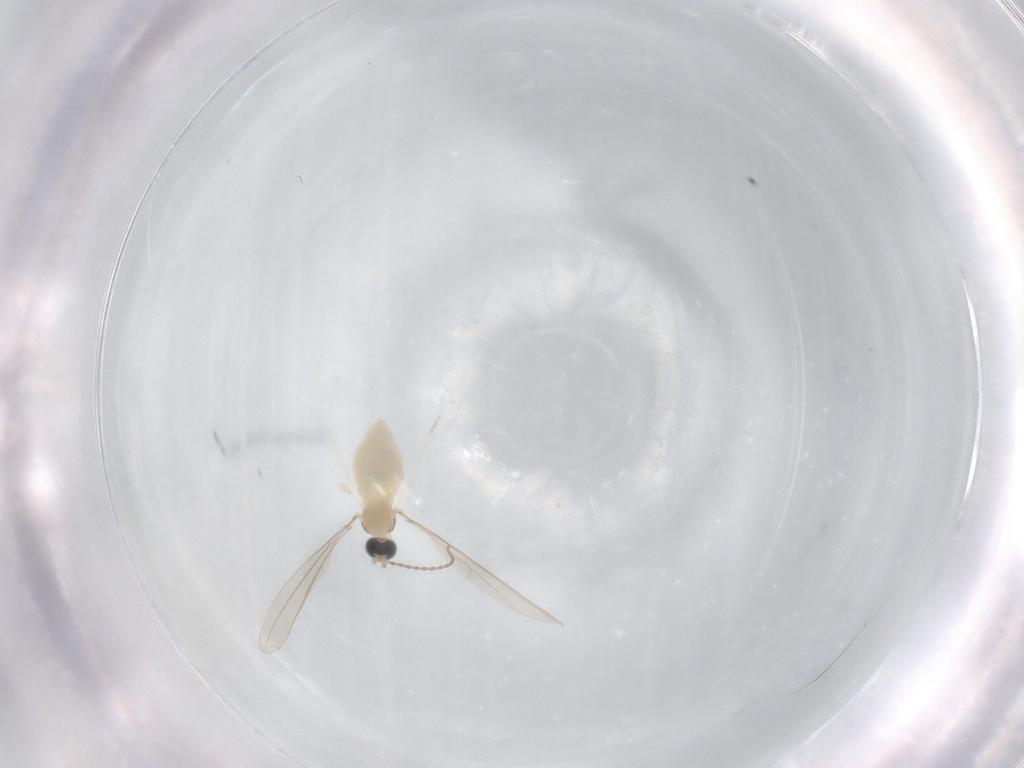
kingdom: Animalia
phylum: Arthropoda
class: Insecta
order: Diptera
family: Cecidomyiidae
